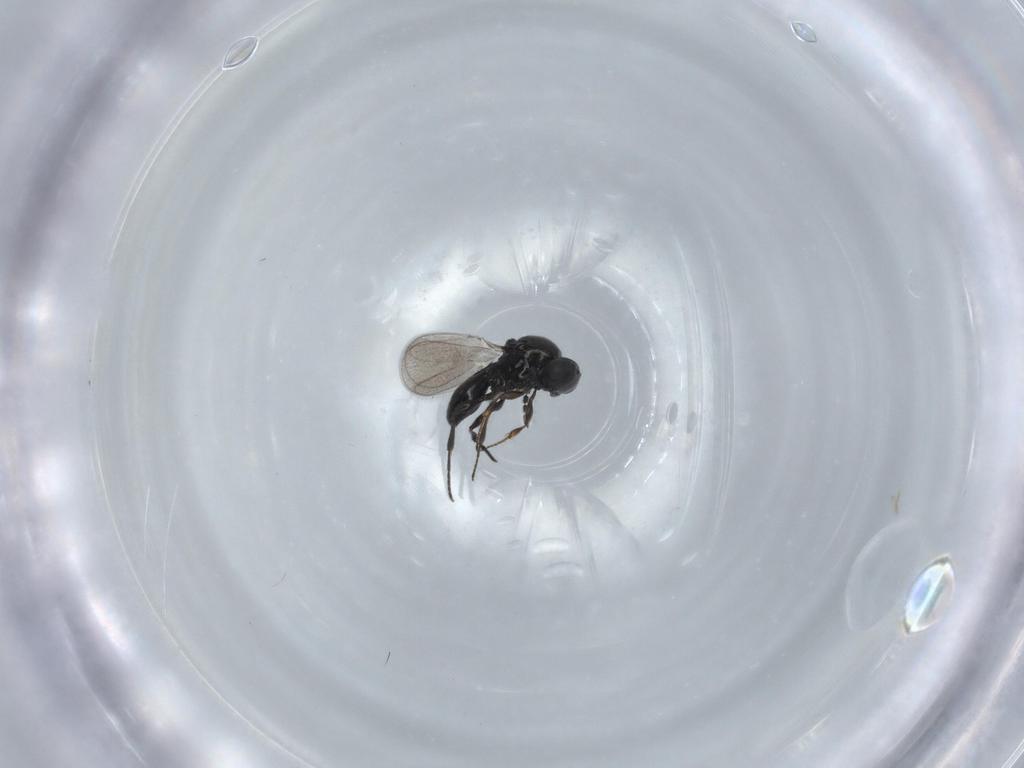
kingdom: Animalia
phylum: Arthropoda
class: Insecta
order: Hymenoptera
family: Platygastridae
